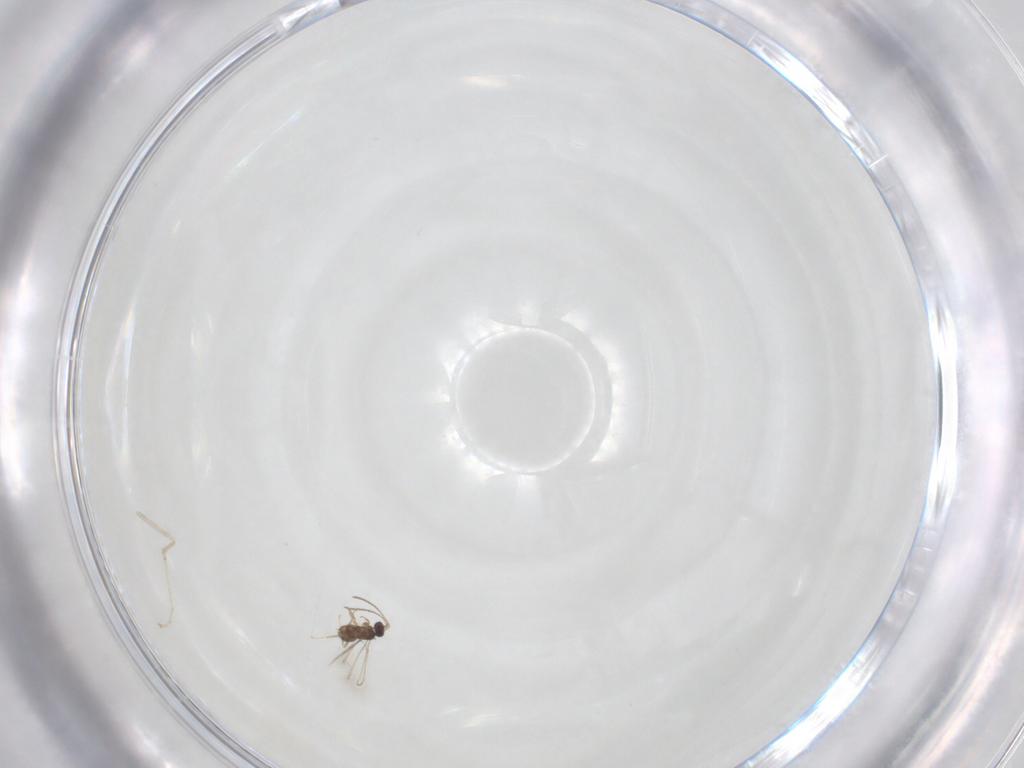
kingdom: Animalia
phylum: Arthropoda
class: Insecta
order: Diptera
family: Cecidomyiidae
